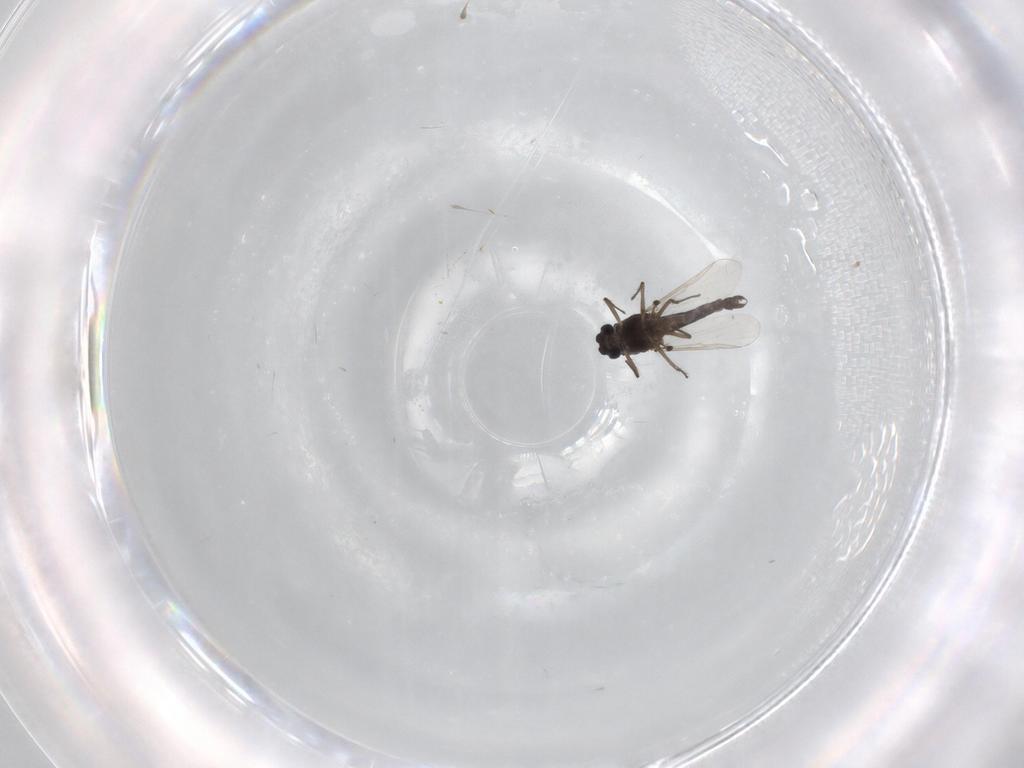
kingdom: Animalia
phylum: Arthropoda
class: Insecta
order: Diptera
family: Chironomidae
